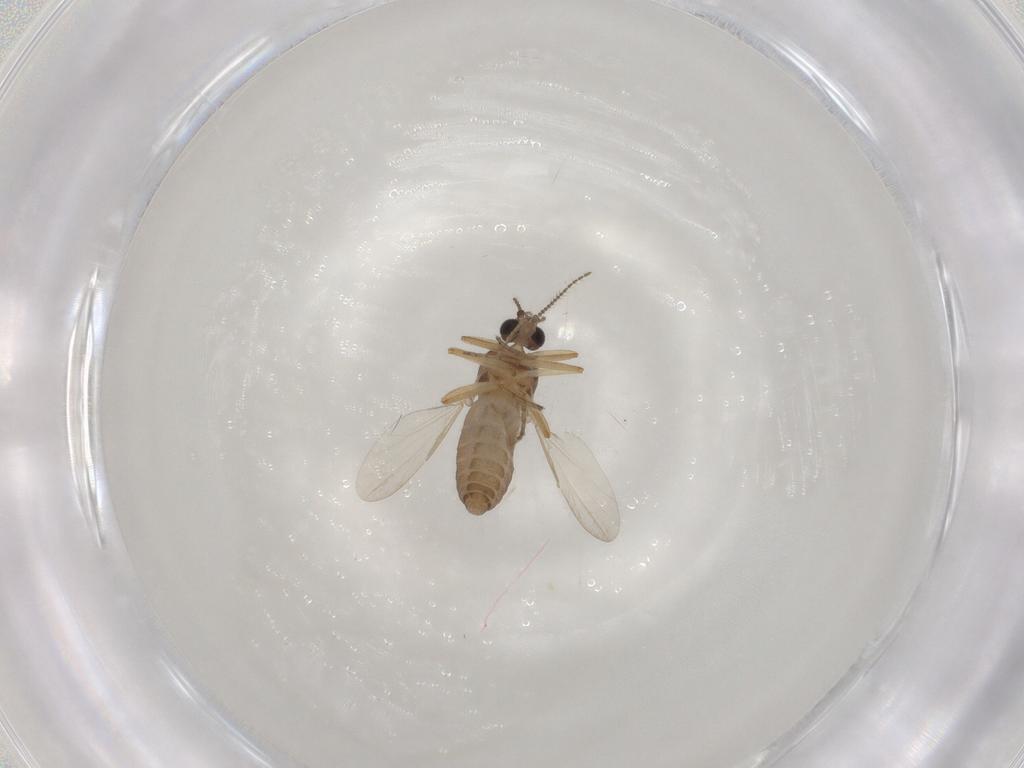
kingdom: Animalia
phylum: Arthropoda
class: Insecta
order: Diptera
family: Ceratopogonidae
